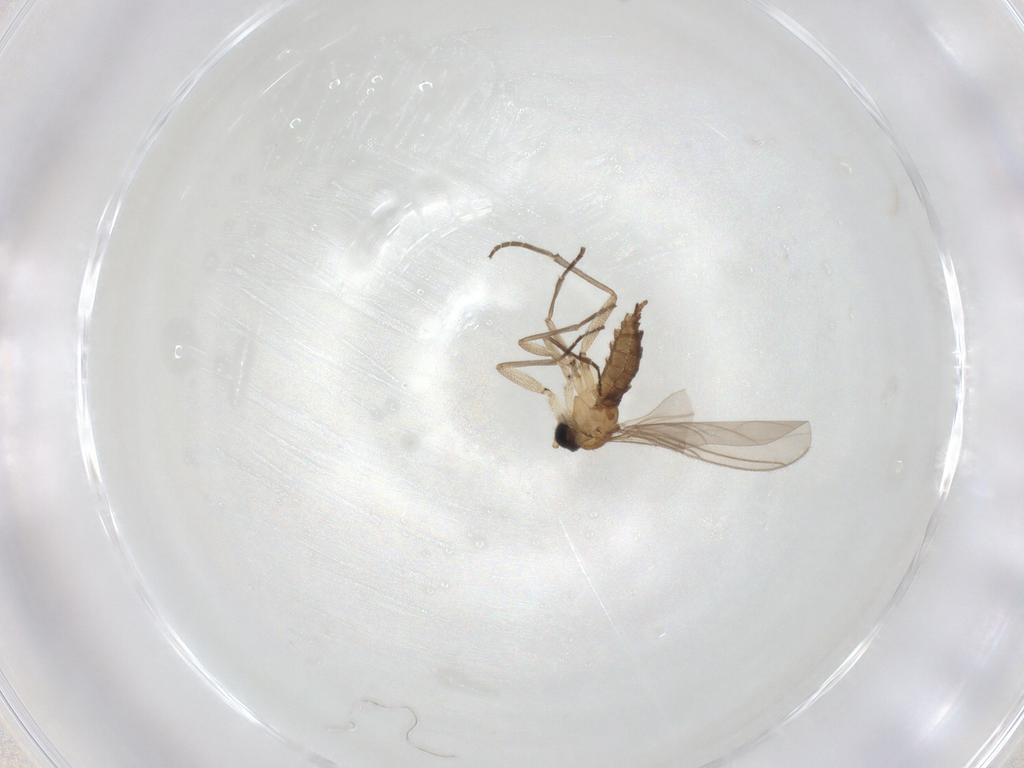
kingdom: Animalia
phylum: Arthropoda
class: Insecta
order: Diptera
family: Sciaridae
